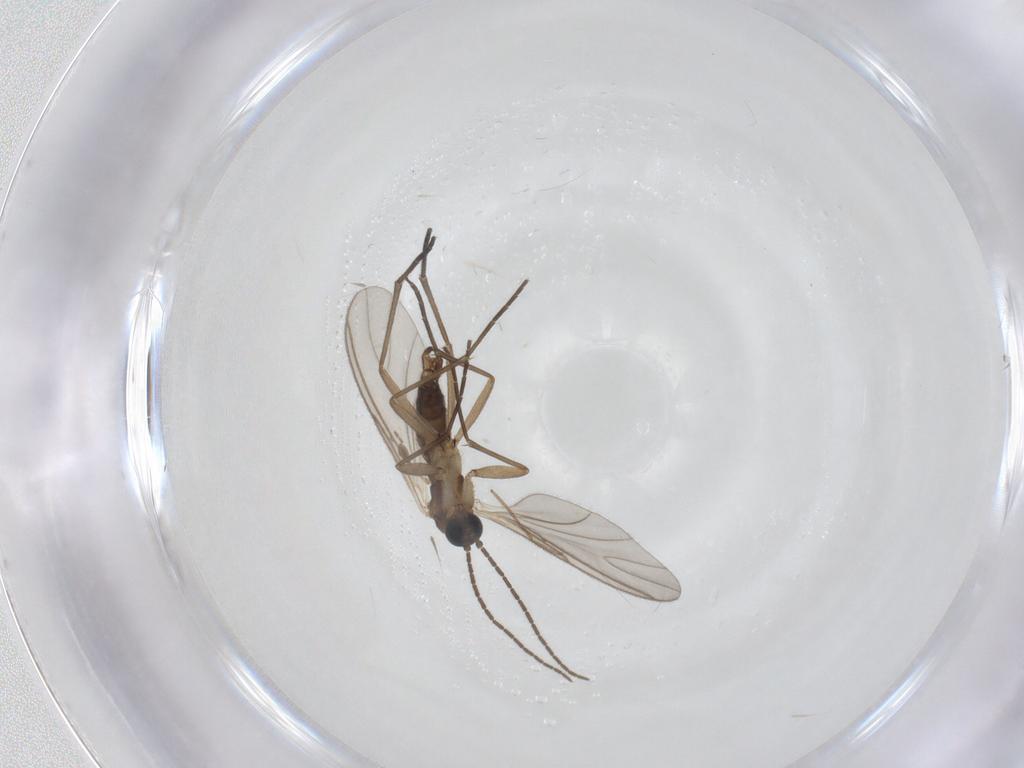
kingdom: Animalia
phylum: Arthropoda
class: Insecta
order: Diptera
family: Sciaridae
